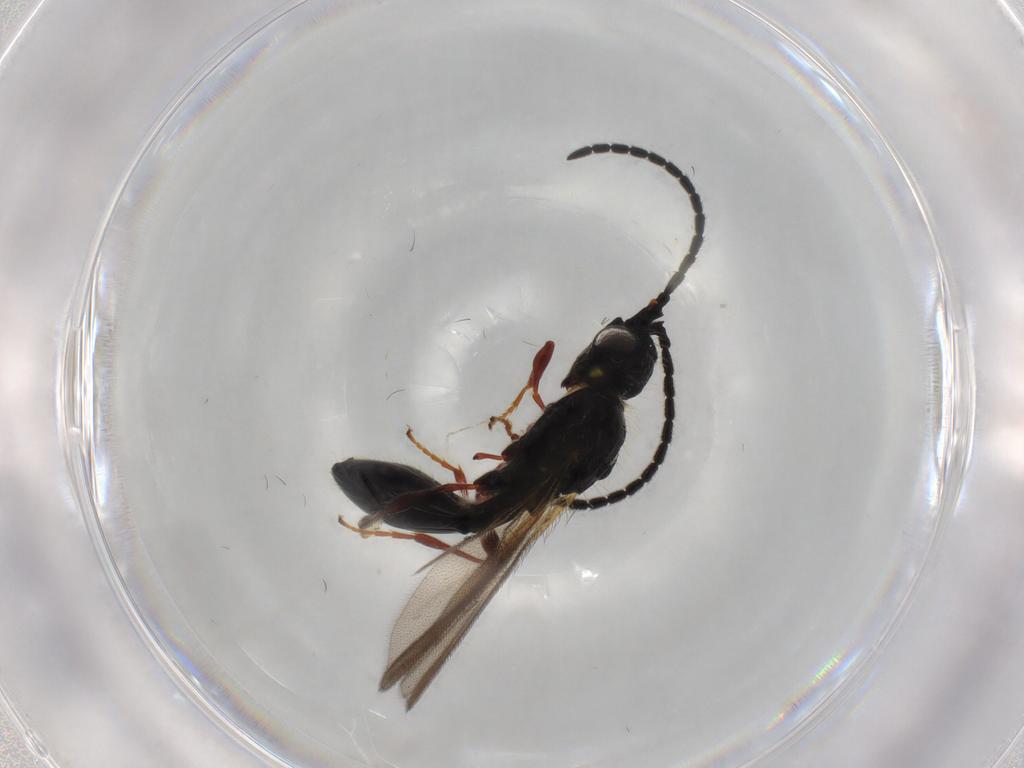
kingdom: Animalia
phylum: Arthropoda
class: Insecta
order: Hymenoptera
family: Diapriidae
